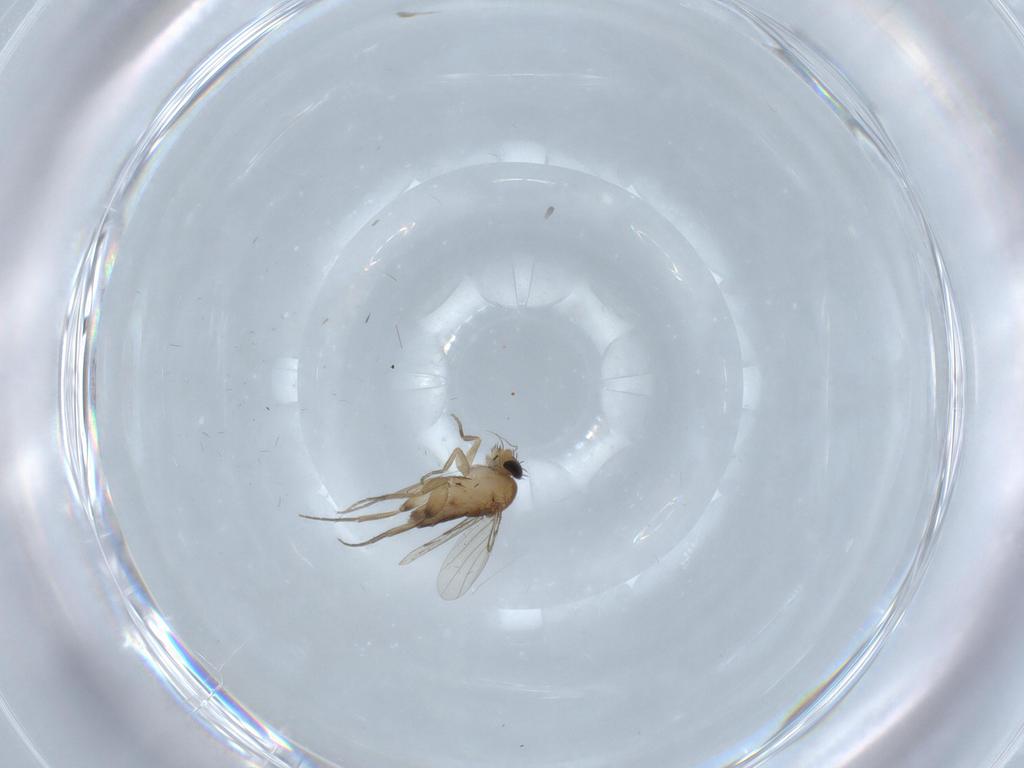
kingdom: Animalia
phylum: Arthropoda
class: Insecta
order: Diptera
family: Chironomidae
